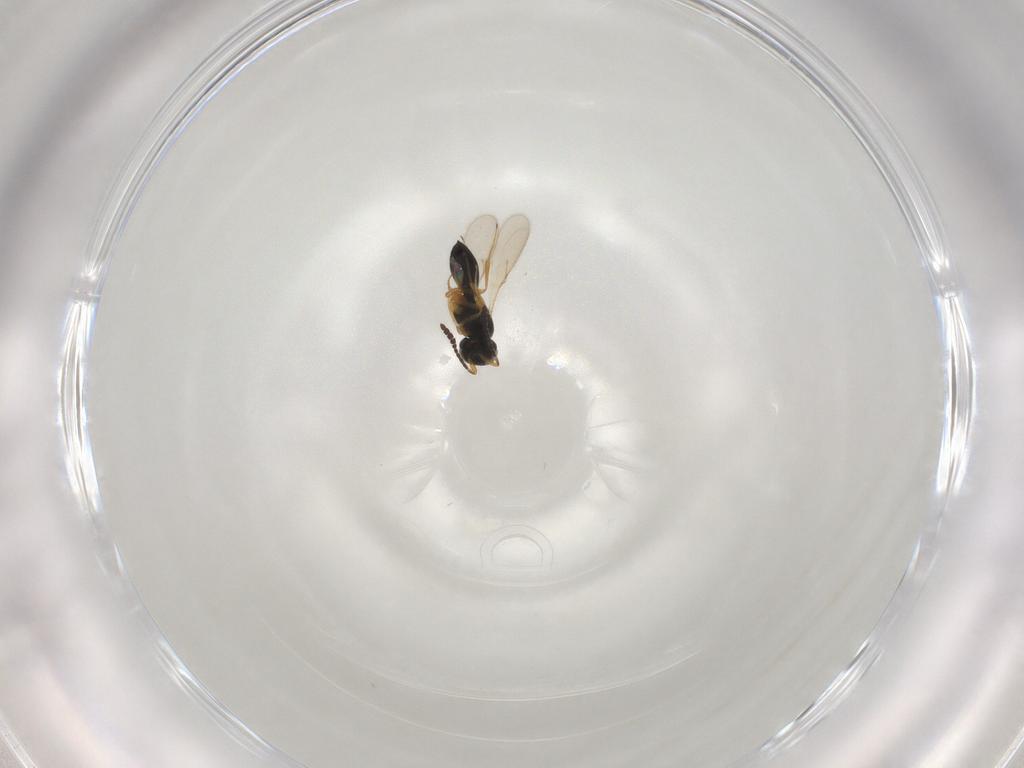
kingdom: Animalia
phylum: Arthropoda
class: Insecta
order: Hymenoptera
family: Scelionidae
